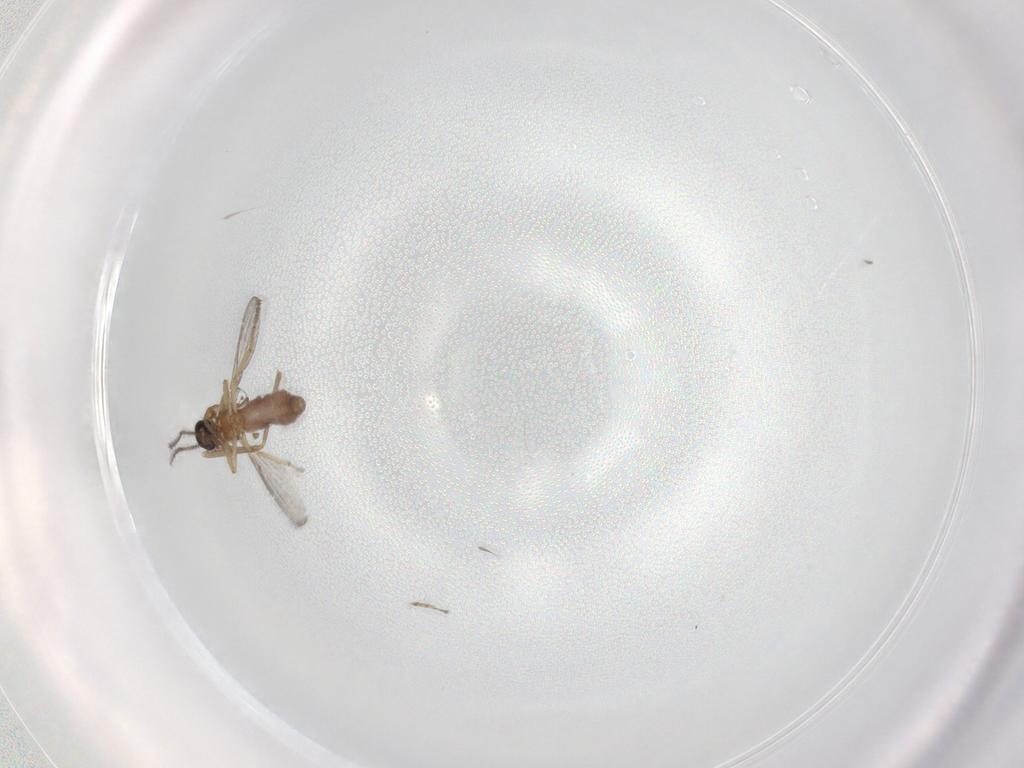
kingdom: Animalia
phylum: Arthropoda
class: Insecta
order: Diptera
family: Chironomidae
